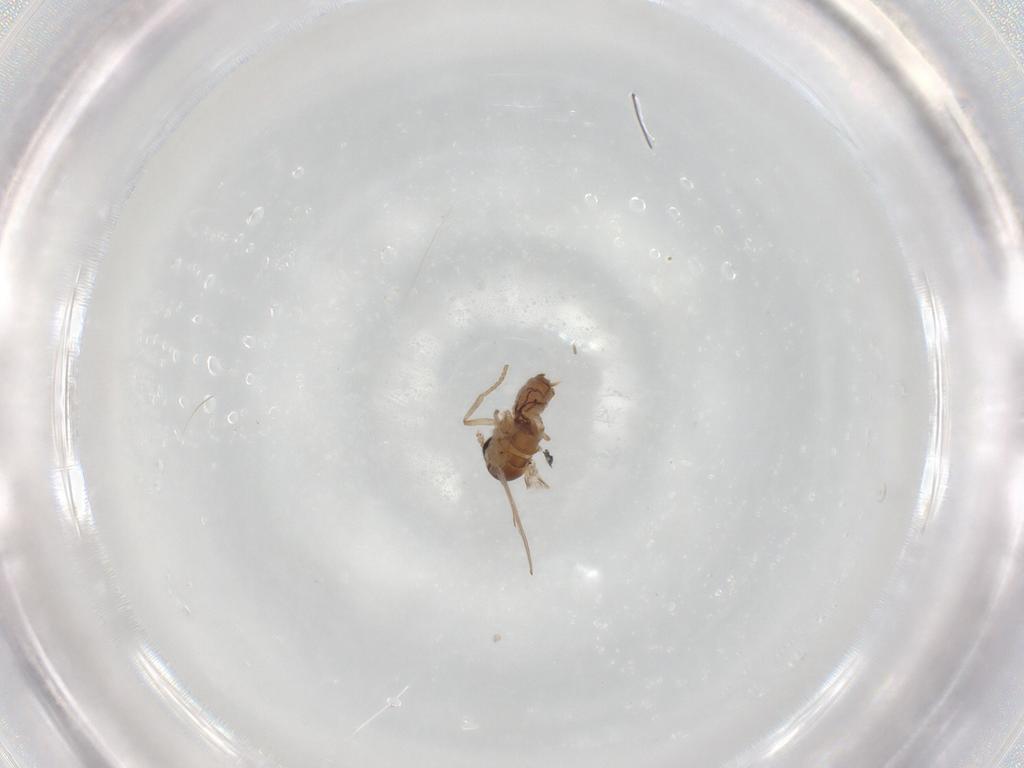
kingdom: Animalia
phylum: Arthropoda
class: Insecta
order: Diptera
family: Psychodidae
